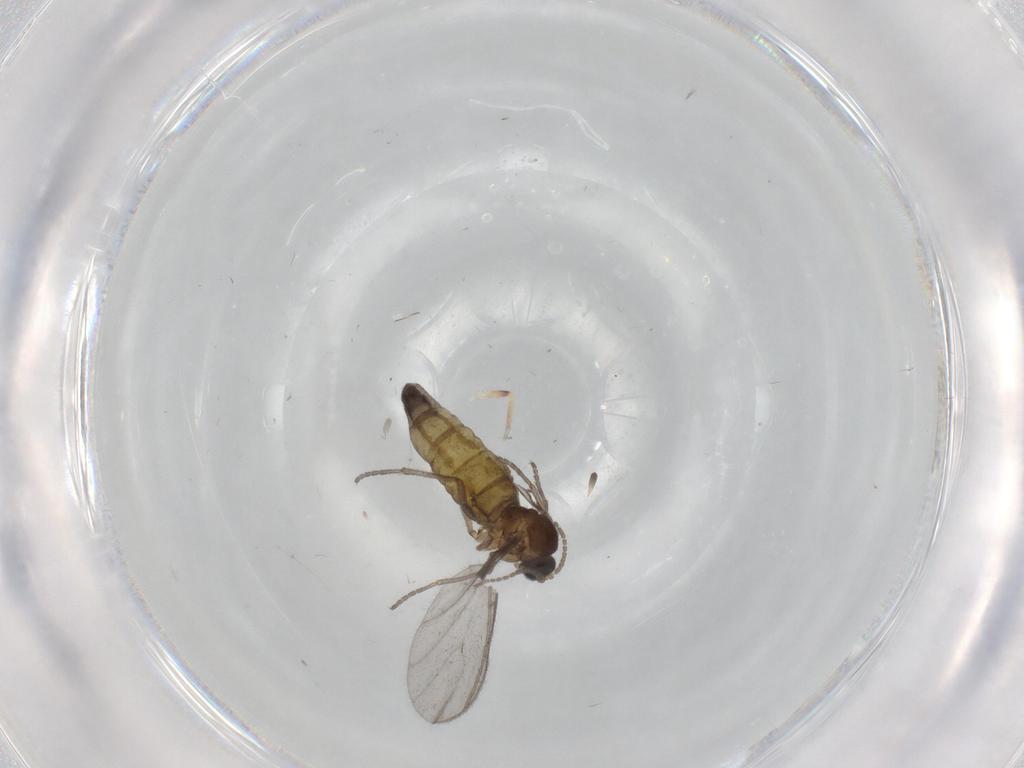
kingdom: Animalia
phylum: Arthropoda
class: Insecta
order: Diptera
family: Sciaridae
